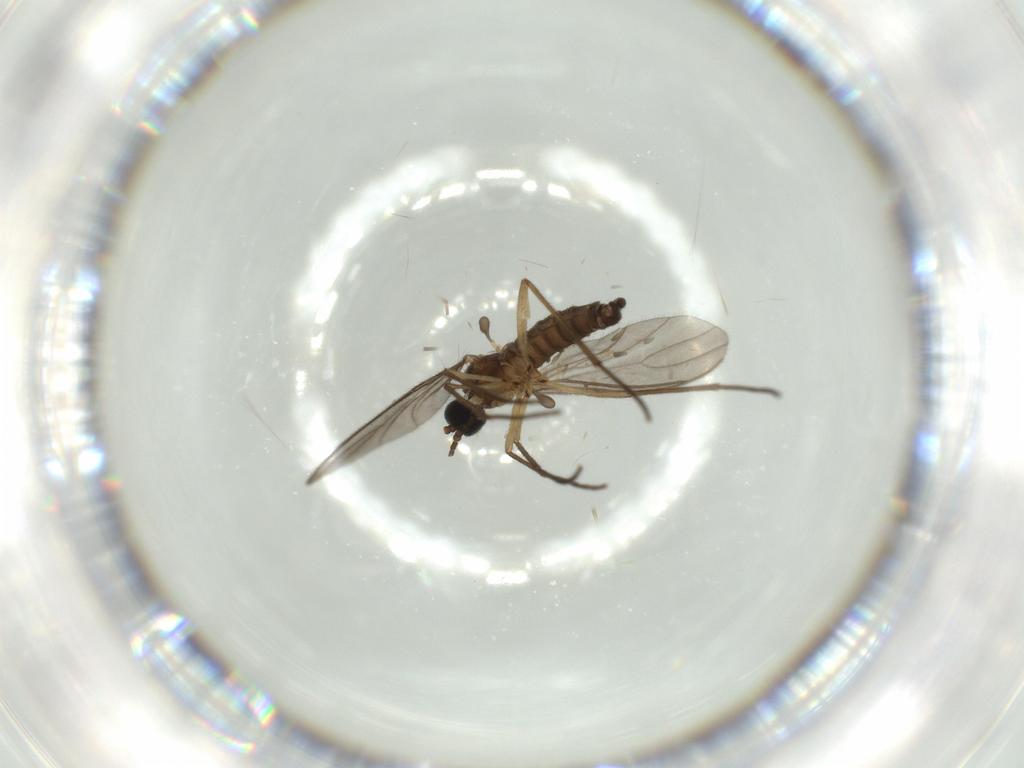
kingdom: Animalia
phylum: Arthropoda
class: Insecta
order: Diptera
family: Sciaridae
